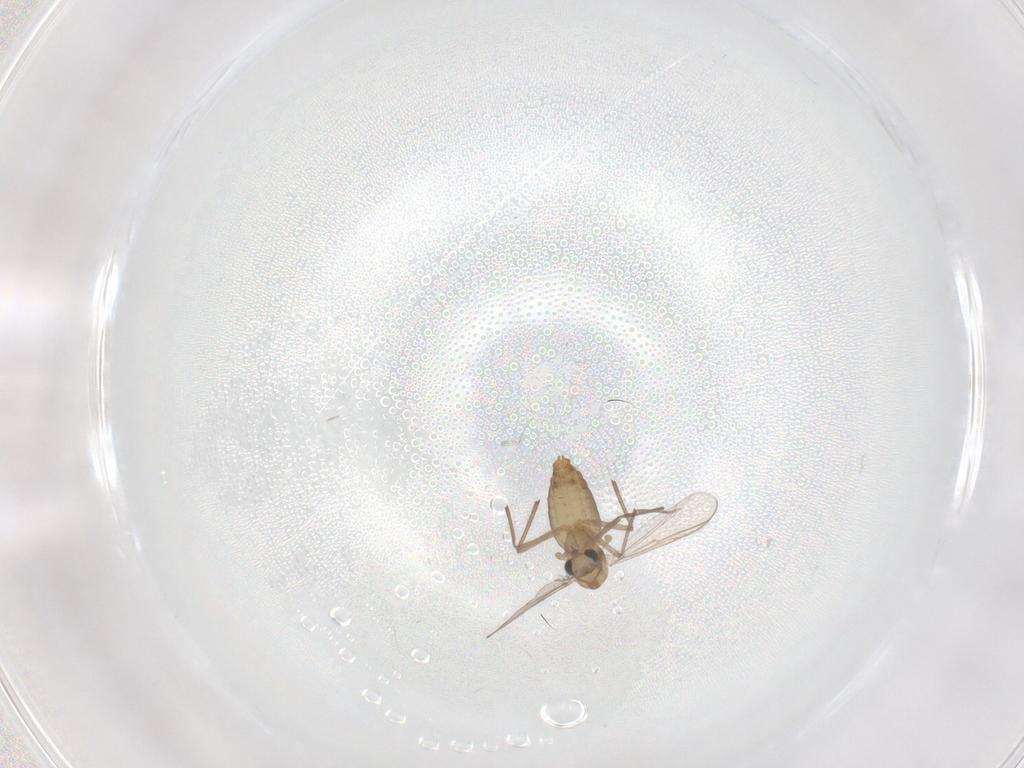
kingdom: Animalia
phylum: Arthropoda
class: Insecta
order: Diptera
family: Chironomidae
